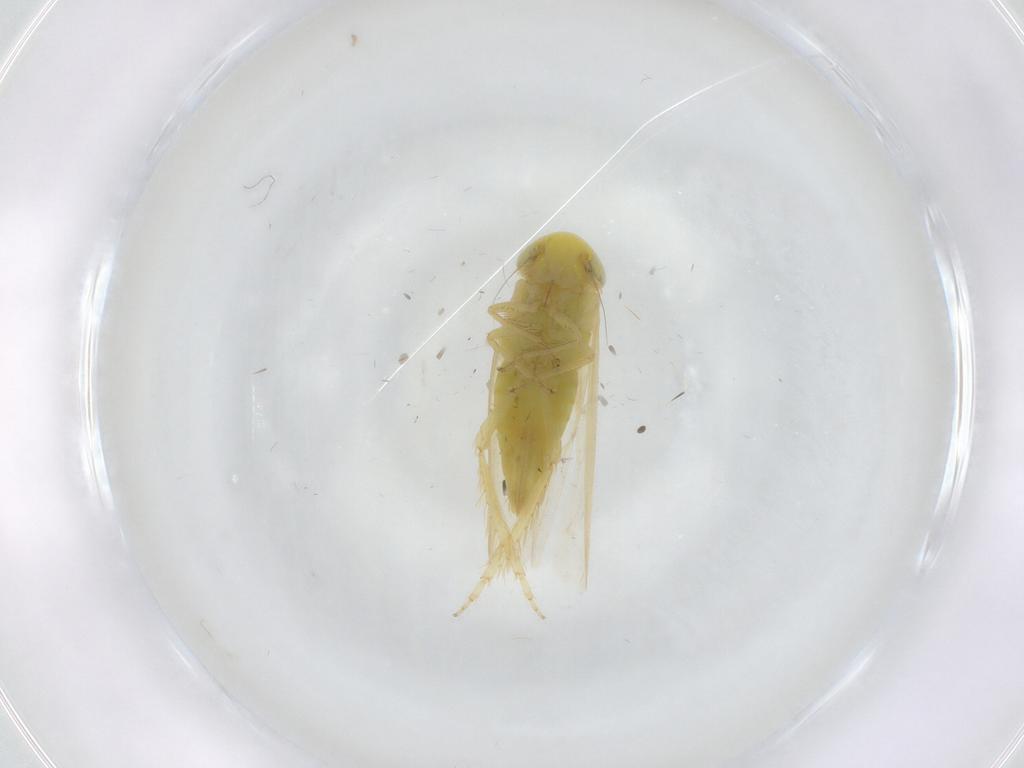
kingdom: Animalia
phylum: Arthropoda
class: Insecta
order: Hemiptera
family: Cicadellidae
